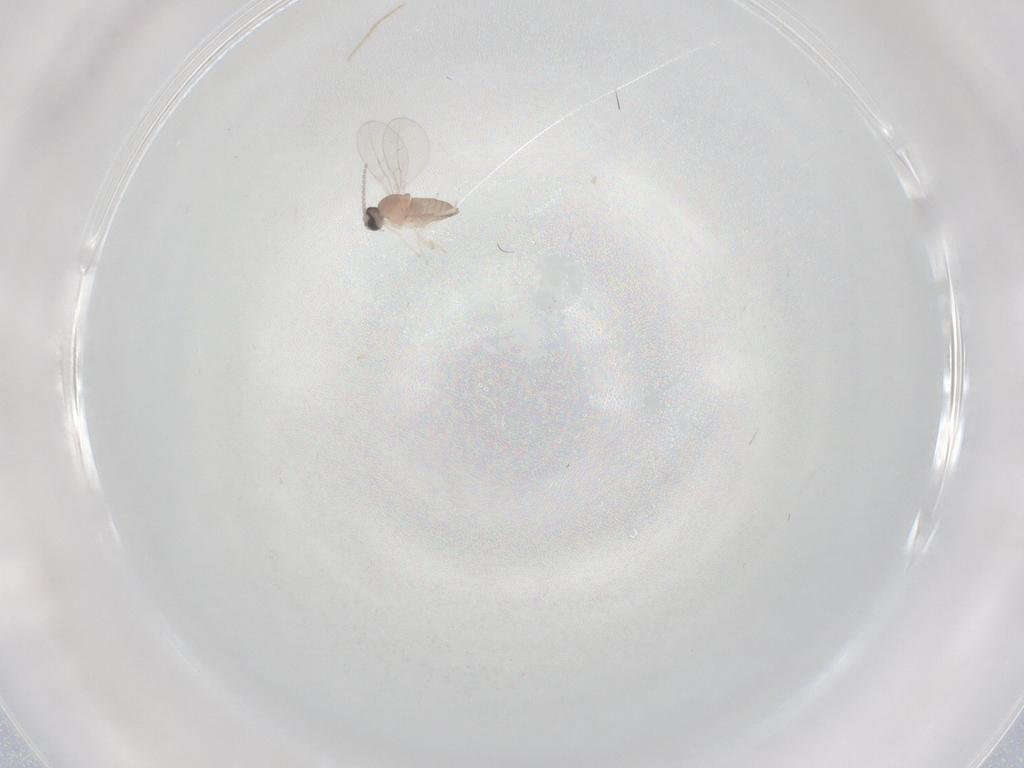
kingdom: Animalia
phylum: Arthropoda
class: Insecta
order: Diptera
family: Cecidomyiidae
